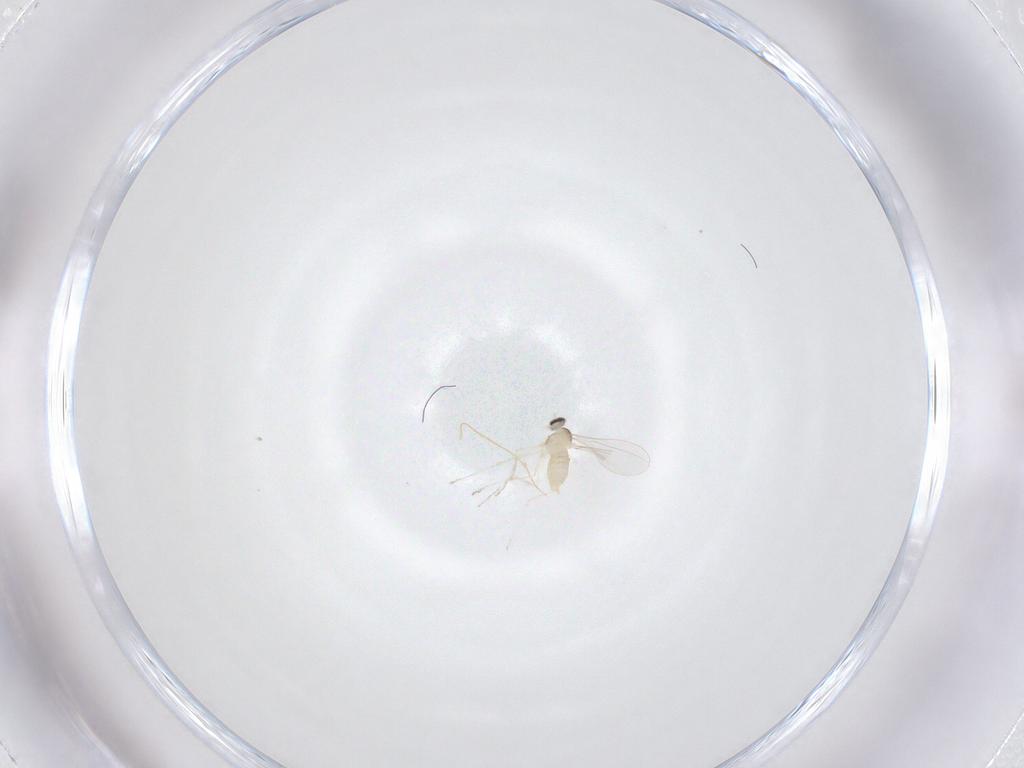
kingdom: Animalia
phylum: Arthropoda
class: Insecta
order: Diptera
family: Cecidomyiidae
